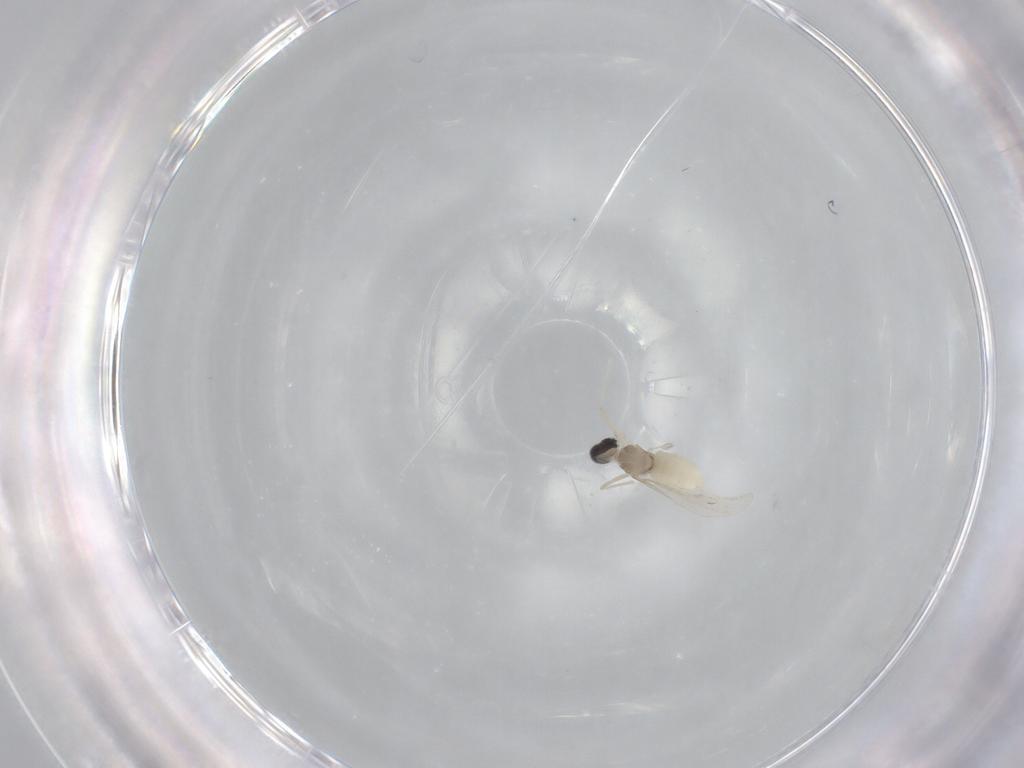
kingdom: Animalia
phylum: Arthropoda
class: Insecta
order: Diptera
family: Cecidomyiidae
